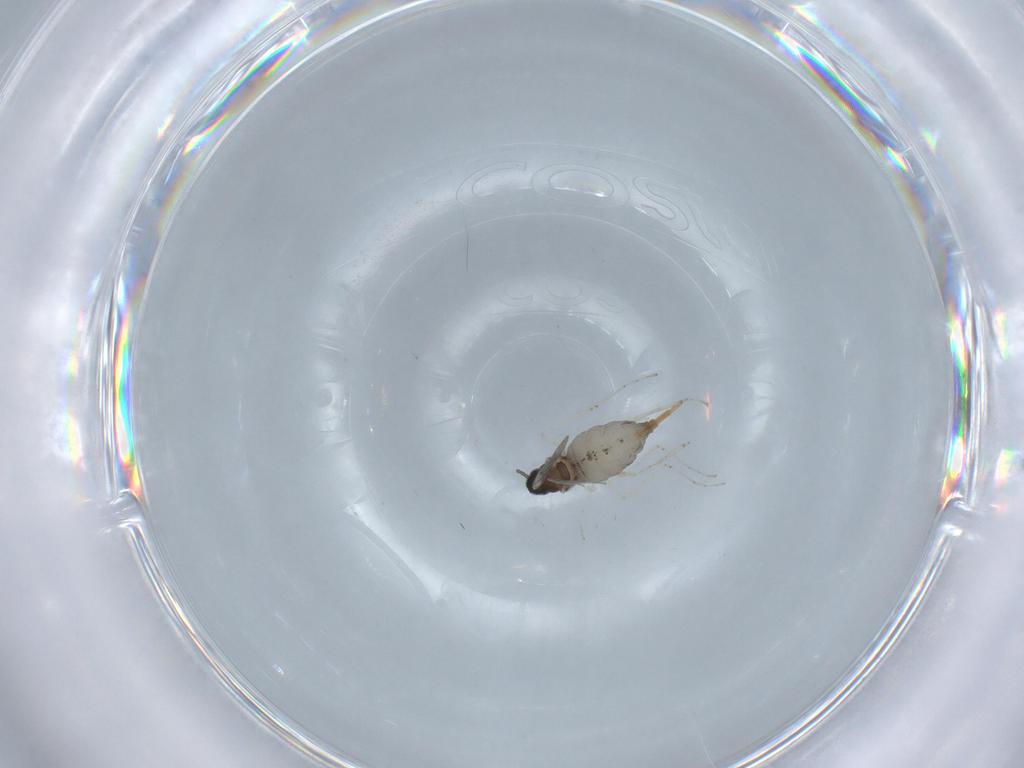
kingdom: Animalia
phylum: Arthropoda
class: Insecta
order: Diptera
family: Cecidomyiidae
